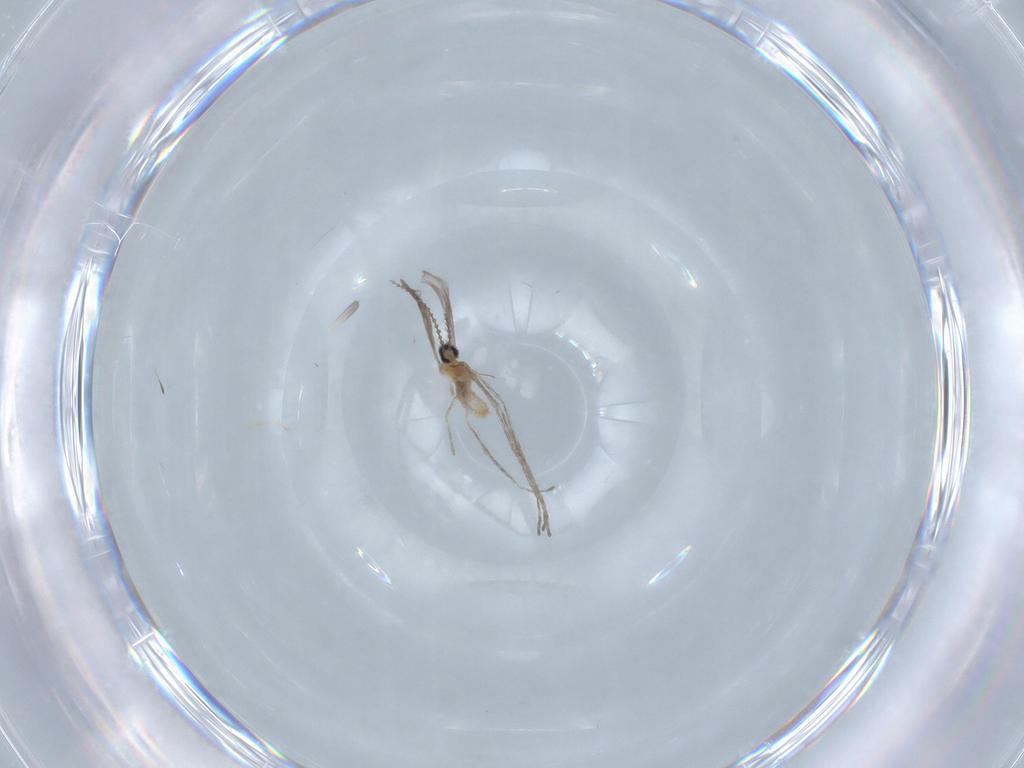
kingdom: Animalia
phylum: Arthropoda
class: Insecta
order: Diptera
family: Cecidomyiidae
